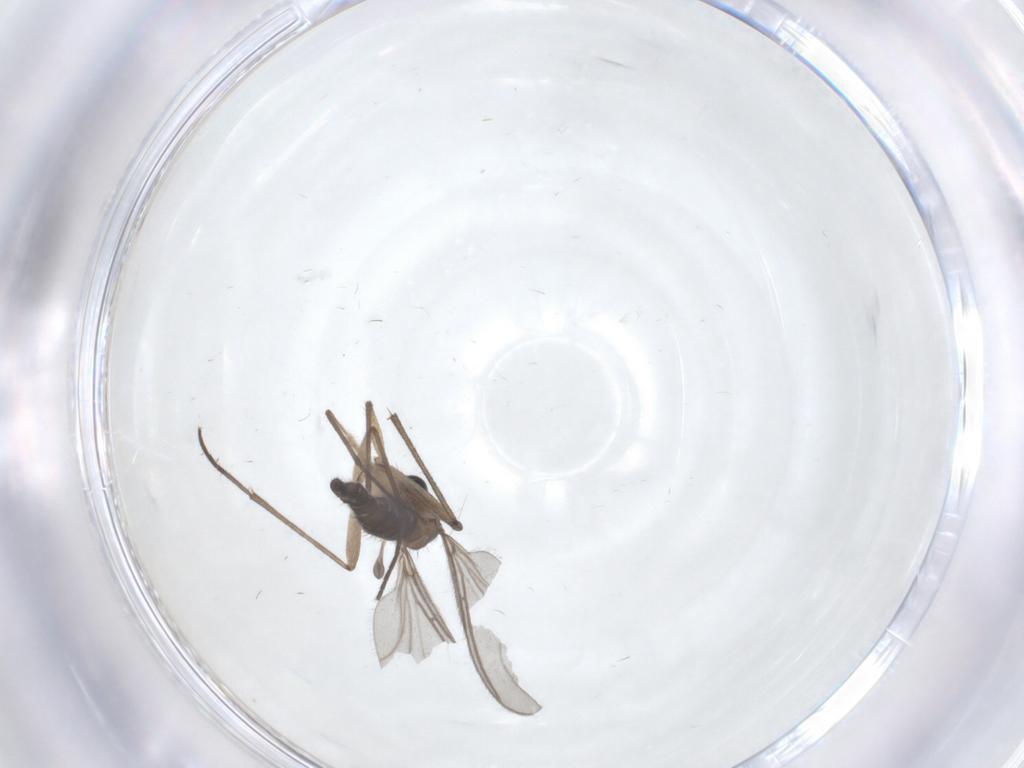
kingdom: Animalia
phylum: Arthropoda
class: Insecta
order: Diptera
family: Sciaridae
